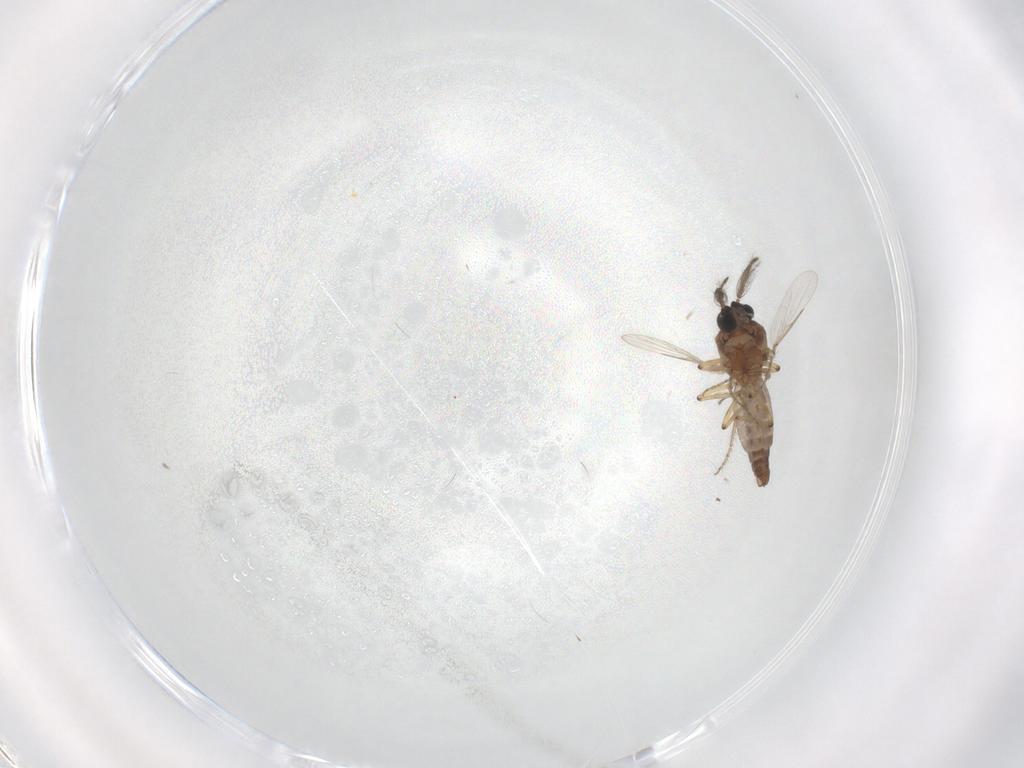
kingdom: Animalia
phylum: Arthropoda
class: Insecta
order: Diptera
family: Ceratopogonidae
